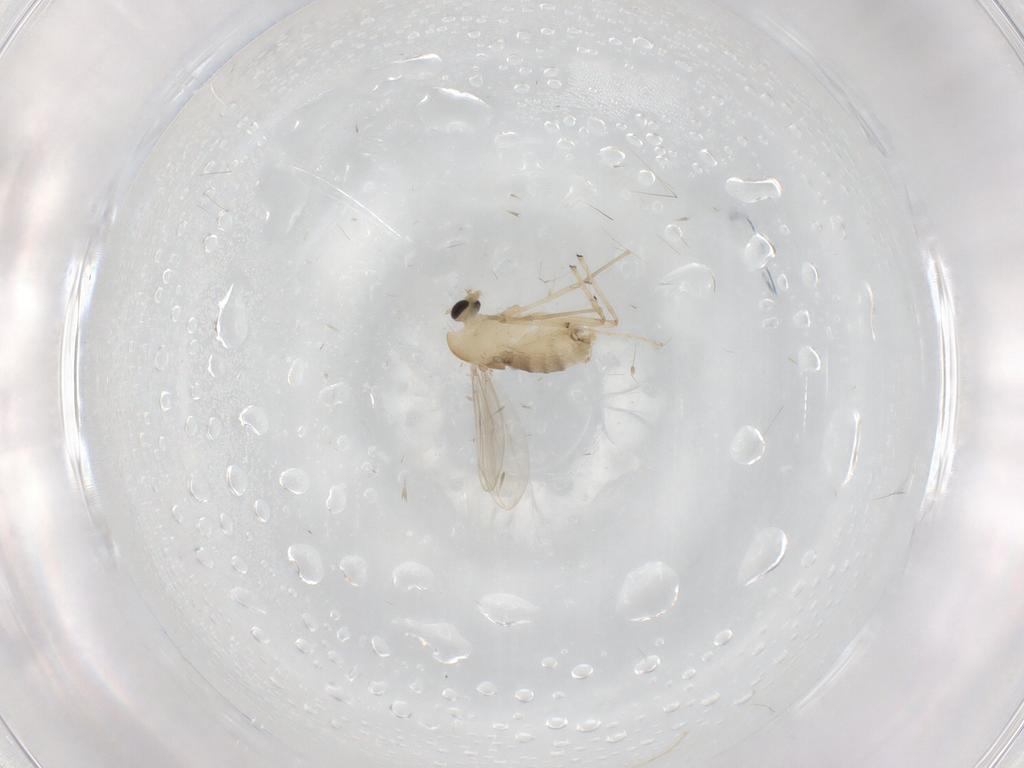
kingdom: Animalia
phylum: Arthropoda
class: Insecta
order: Diptera
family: Chironomidae
